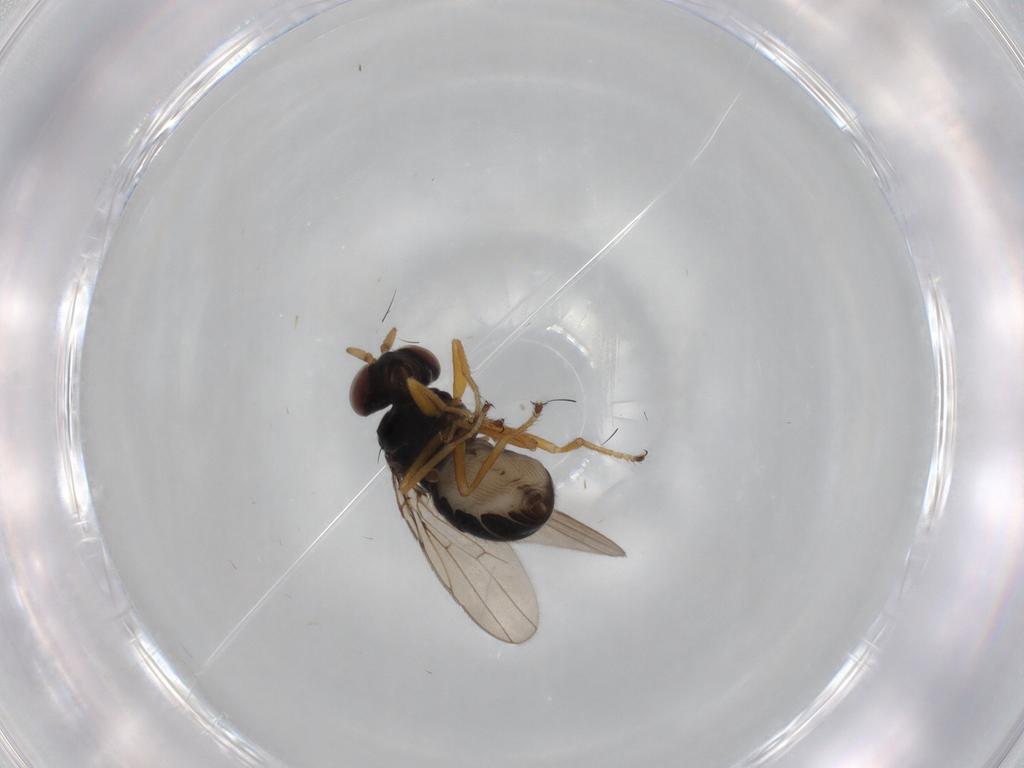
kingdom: Animalia
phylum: Arthropoda
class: Insecta
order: Diptera
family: Ephydridae
